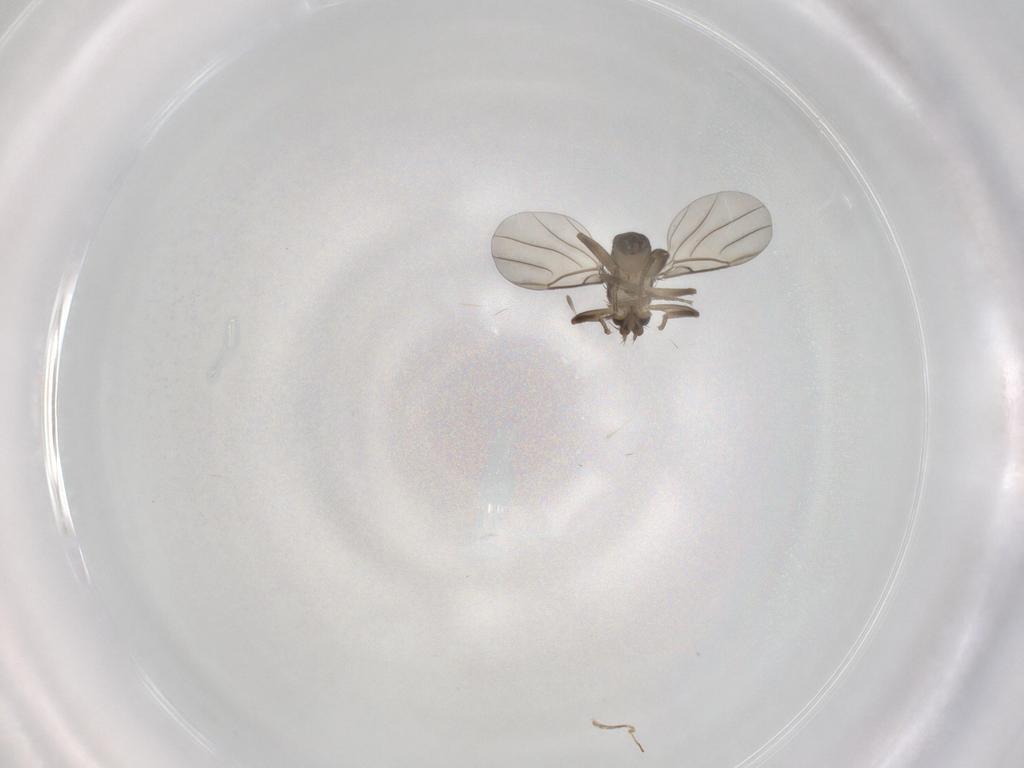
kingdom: Animalia
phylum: Arthropoda
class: Insecta
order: Diptera
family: Phoridae
